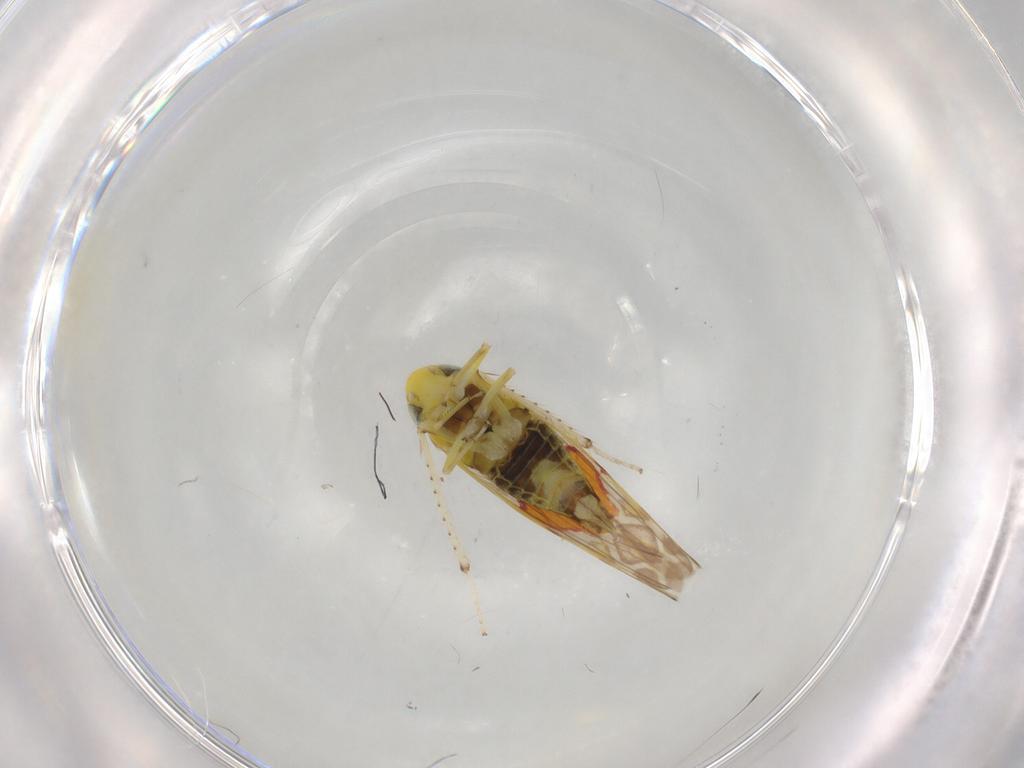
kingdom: Animalia
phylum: Arthropoda
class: Insecta
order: Hemiptera
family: Cicadellidae
